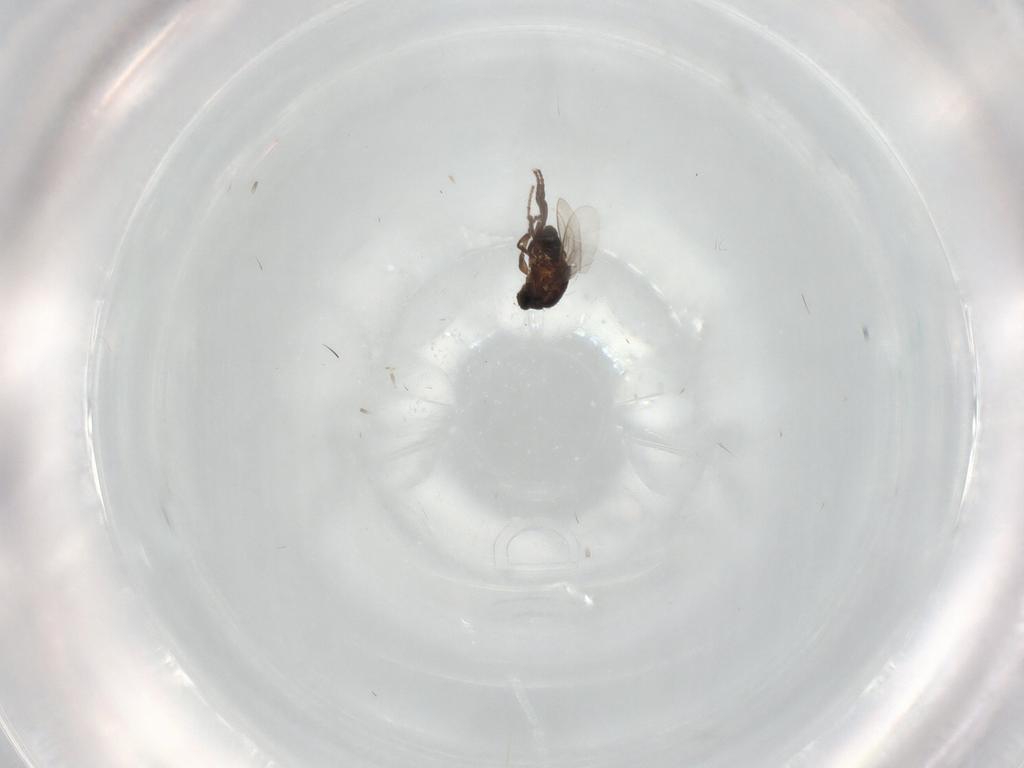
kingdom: Animalia
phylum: Arthropoda
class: Insecta
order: Diptera
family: Sphaeroceridae
